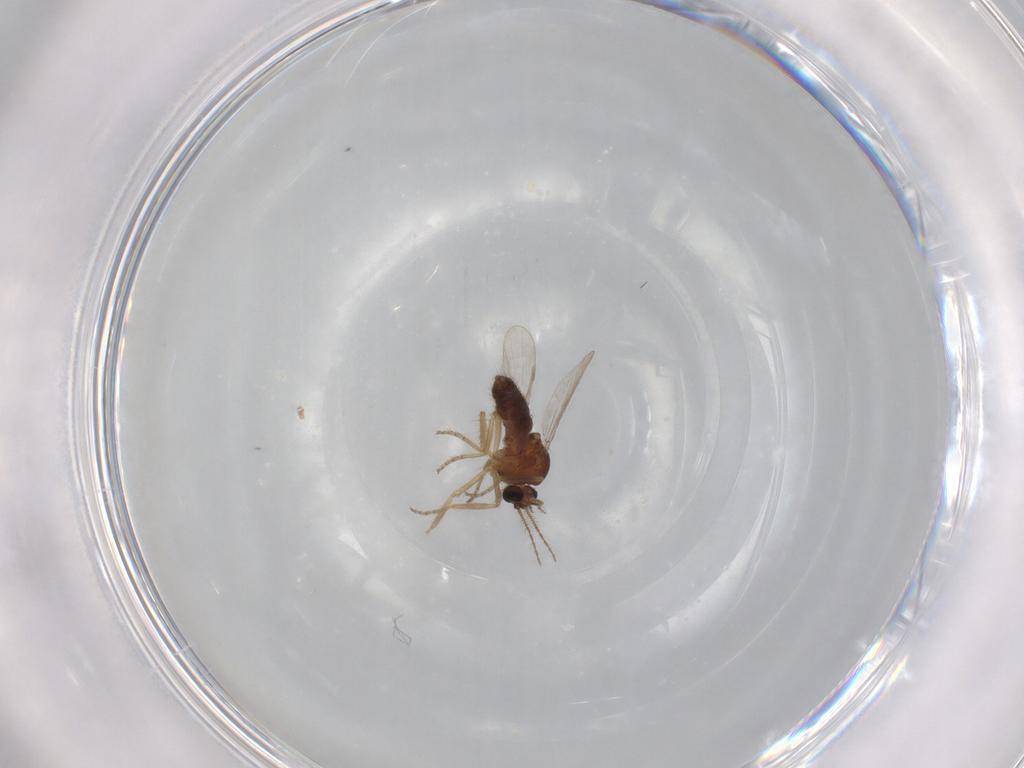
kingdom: Animalia
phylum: Arthropoda
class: Insecta
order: Diptera
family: Ceratopogonidae
